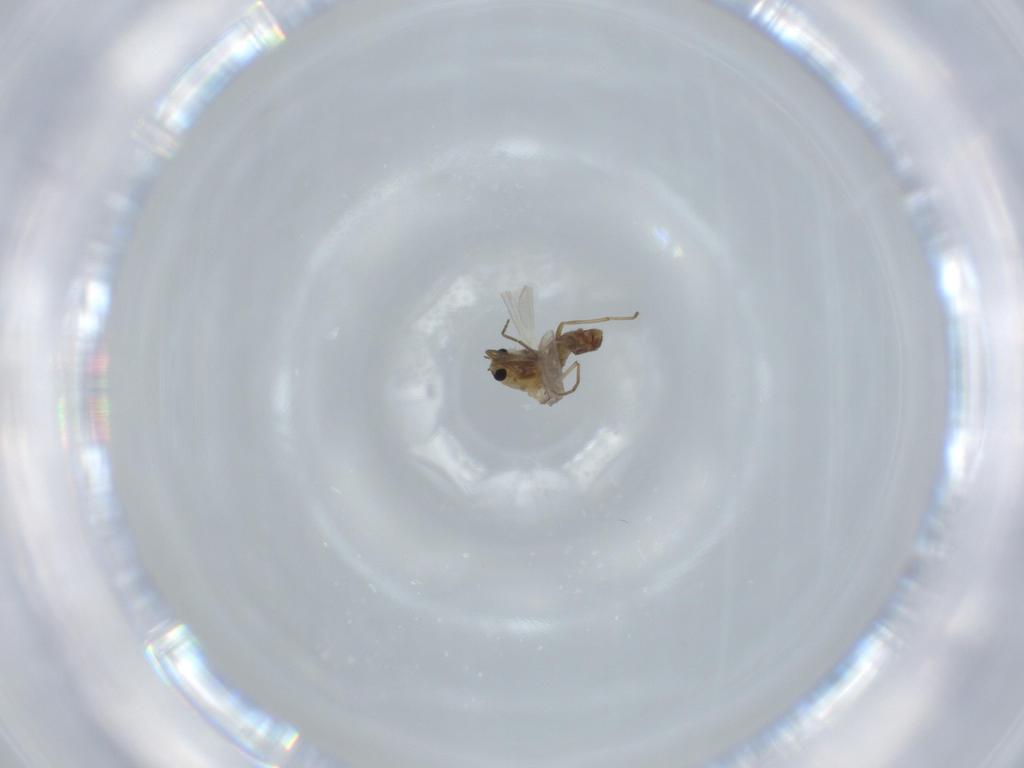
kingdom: Animalia
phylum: Arthropoda
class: Insecta
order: Diptera
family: Chironomidae
